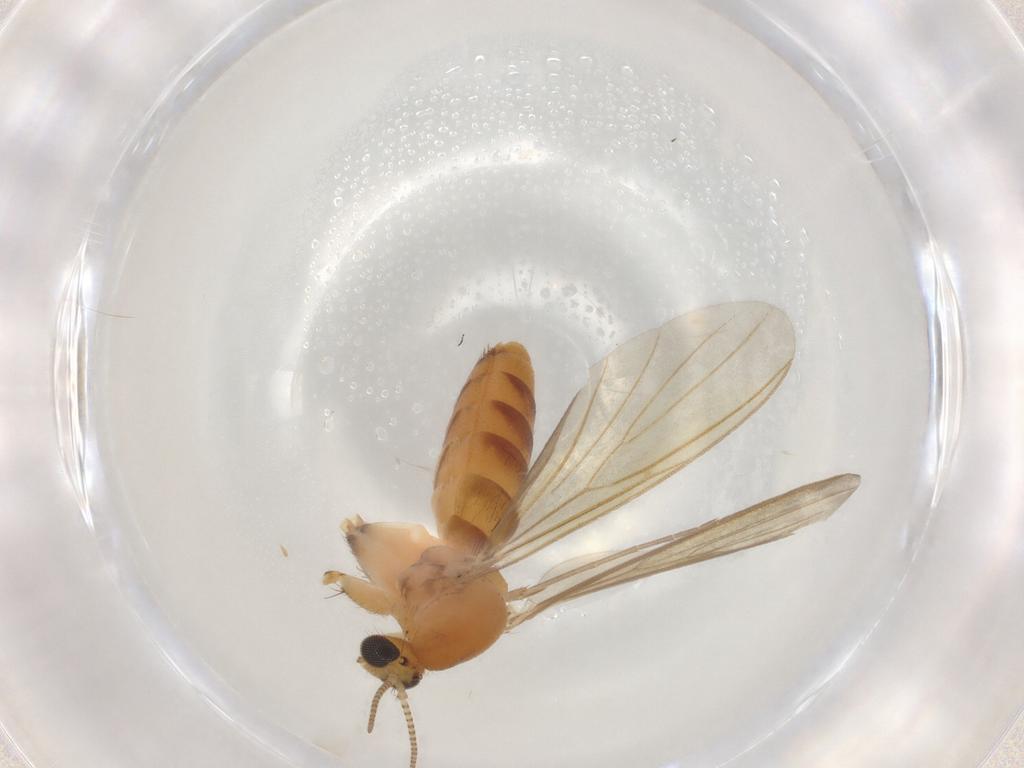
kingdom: Animalia
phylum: Arthropoda
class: Insecta
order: Diptera
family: Mycetophilidae
